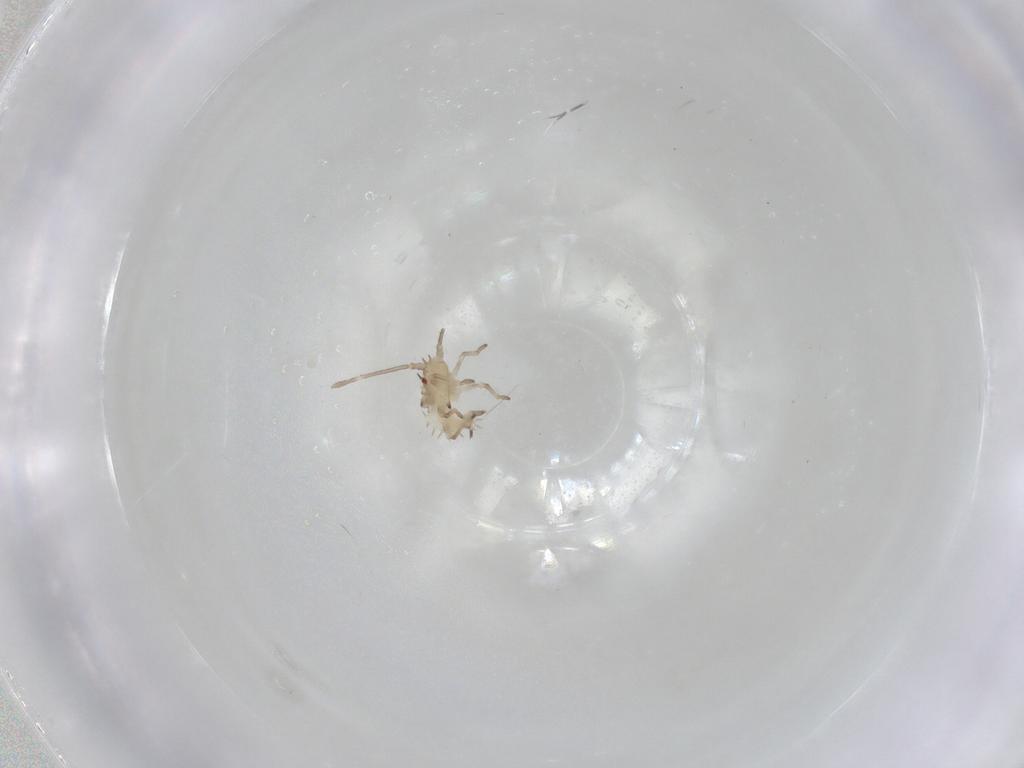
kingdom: Animalia
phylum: Arthropoda
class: Insecta
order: Hemiptera
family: Tingidae
